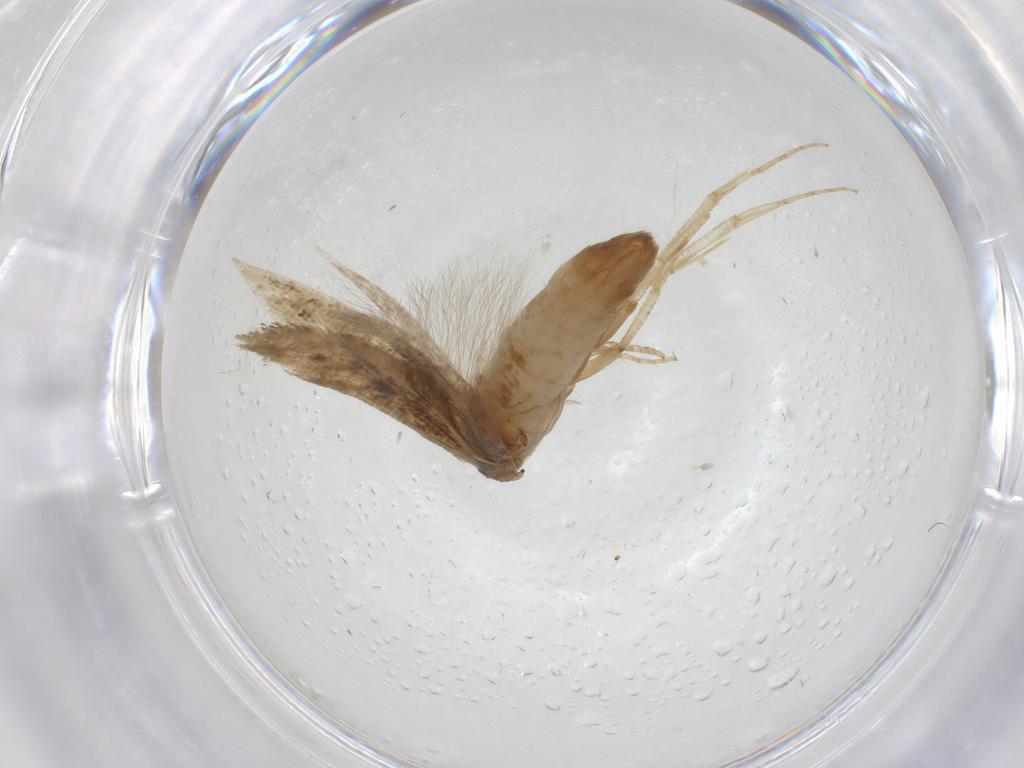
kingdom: Animalia
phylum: Arthropoda
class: Insecta
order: Lepidoptera
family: Gelechiidae
